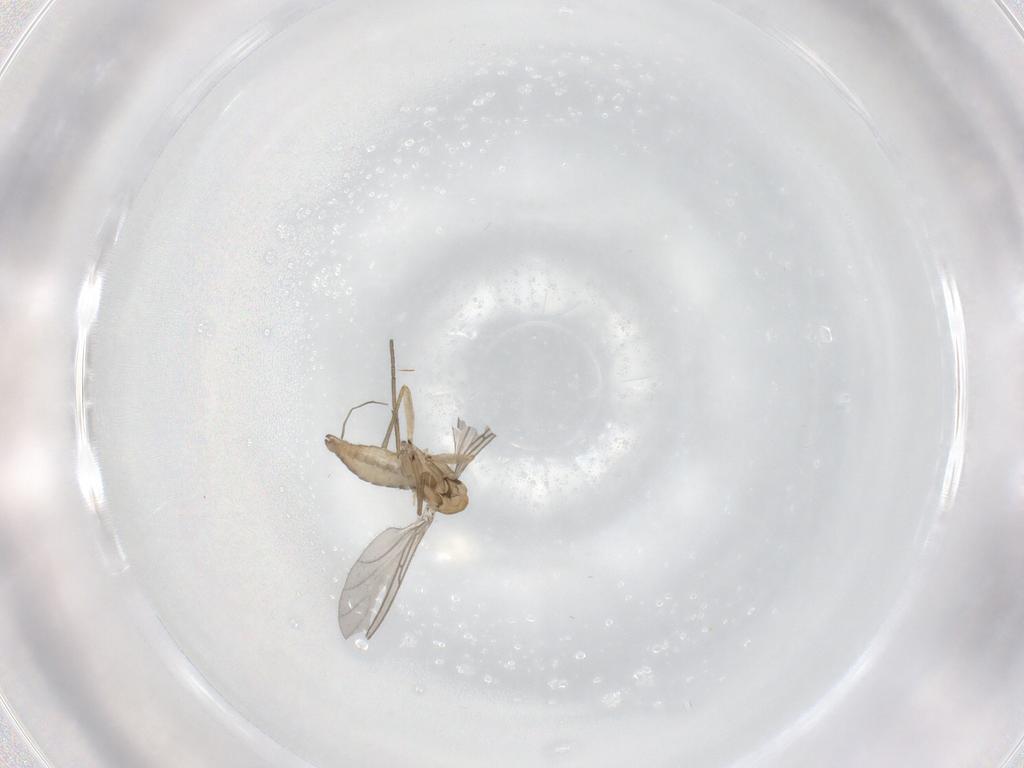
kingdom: Animalia
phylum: Arthropoda
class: Insecta
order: Diptera
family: Sciaridae
